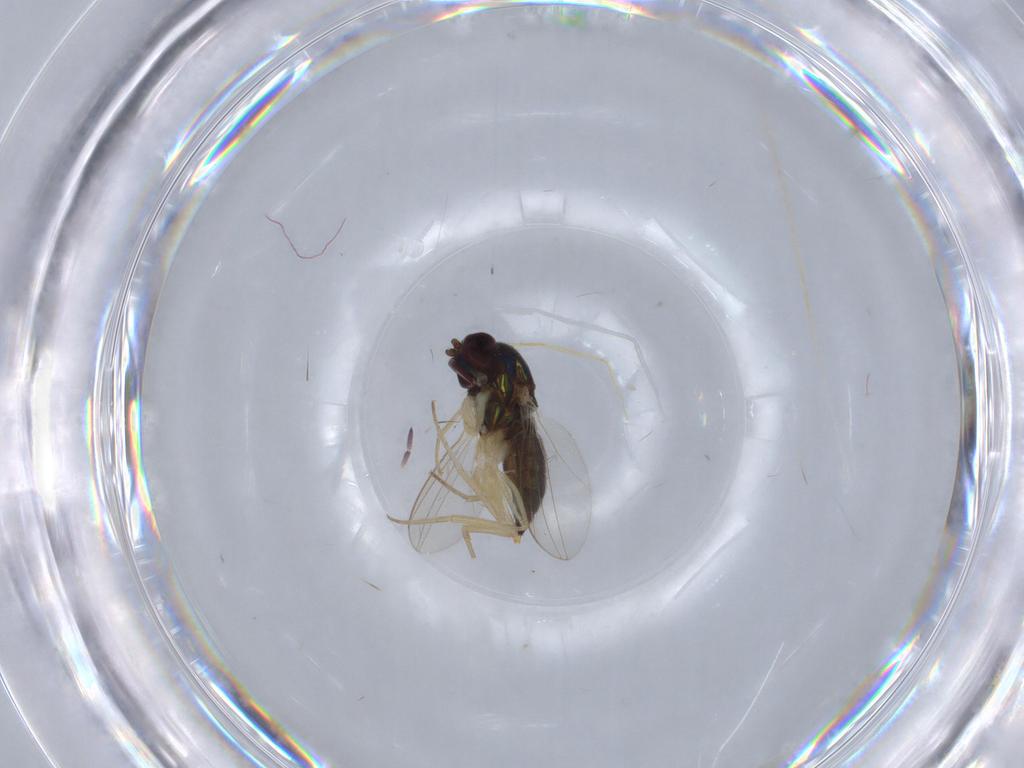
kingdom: Animalia
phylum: Arthropoda
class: Insecta
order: Diptera
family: Dolichopodidae
